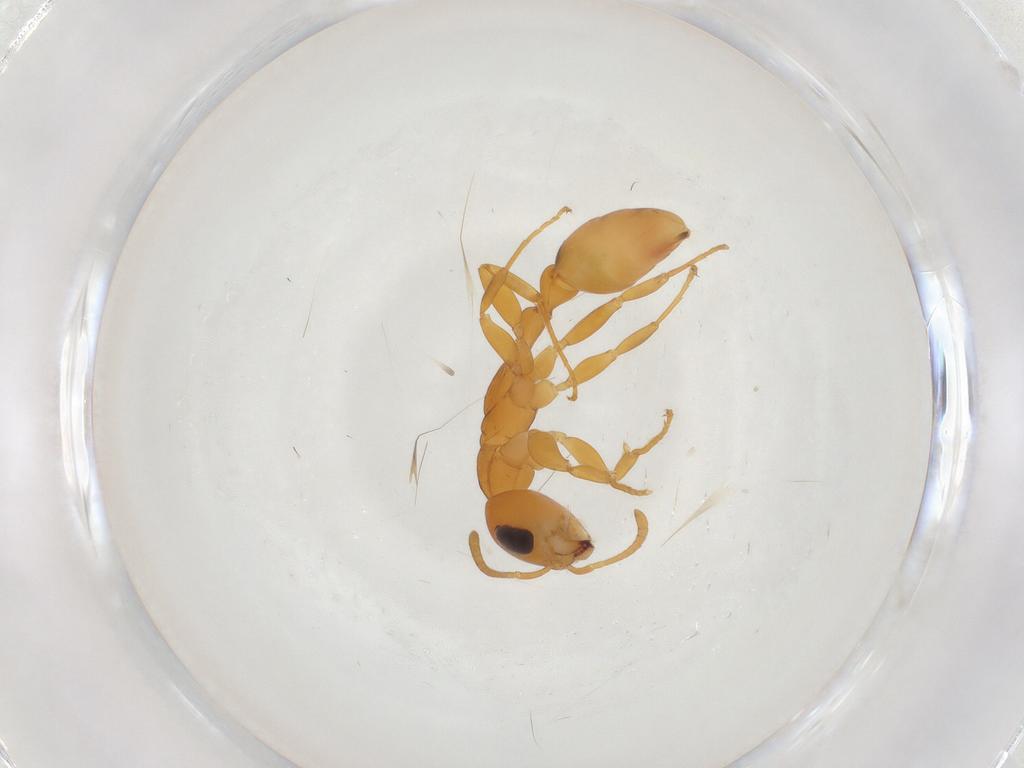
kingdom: Animalia
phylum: Arthropoda
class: Insecta
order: Hymenoptera
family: Formicidae
